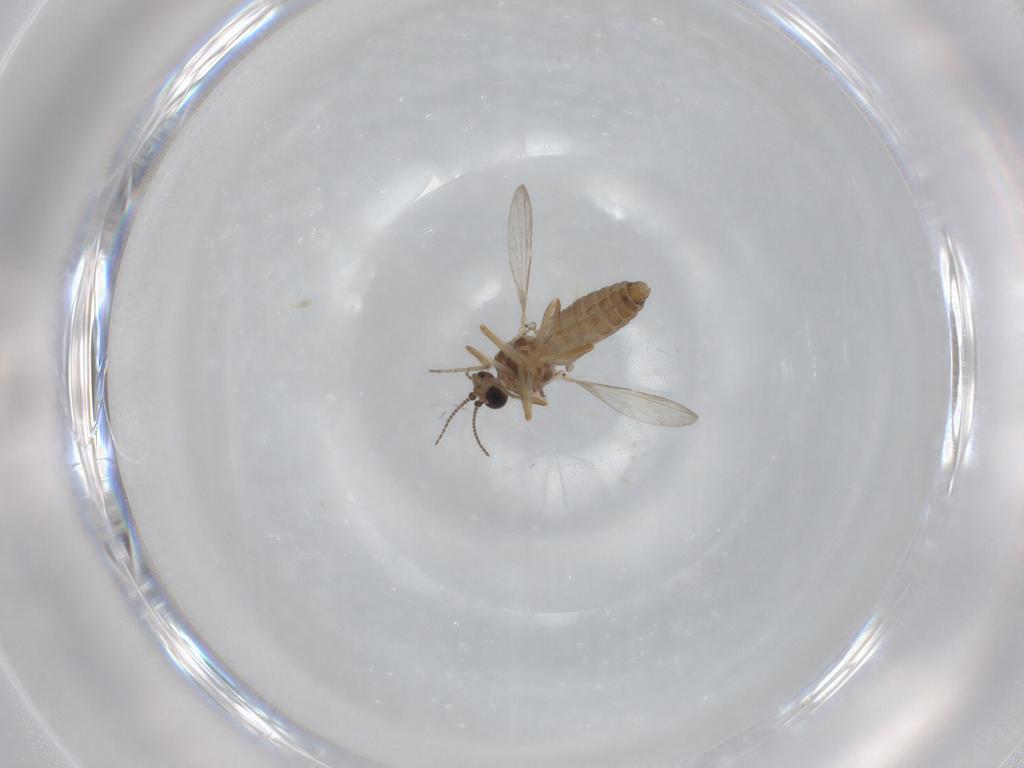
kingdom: Animalia
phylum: Arthropoda
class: Insecta
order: Diptera
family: Ceratopogonidae
